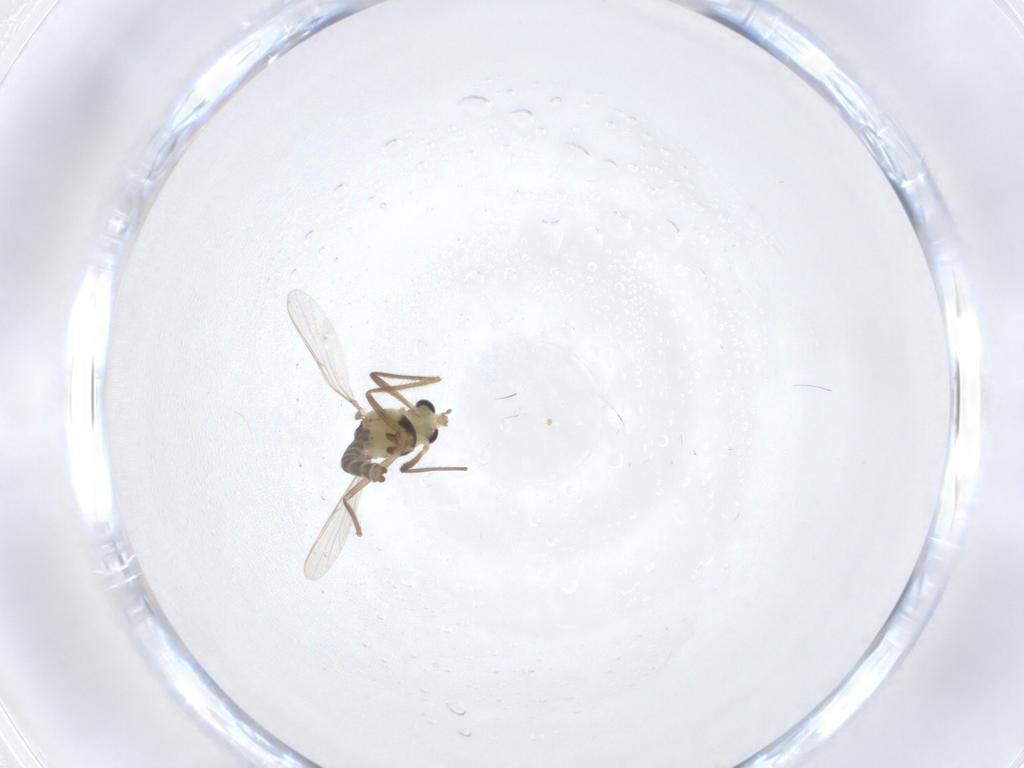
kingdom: Animalia
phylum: Arthropoda
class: Insecta
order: Diptera
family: Chironomidae
